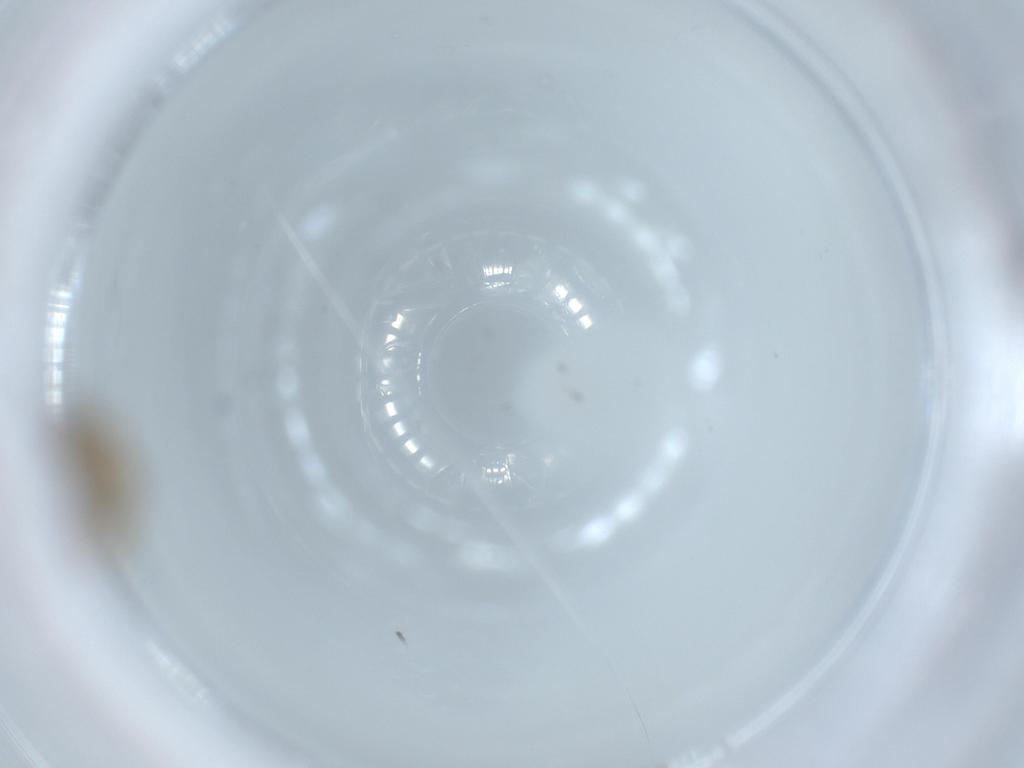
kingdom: Animalia
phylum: Arthropoda
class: Insecta
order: Diptera
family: Chironomidae
